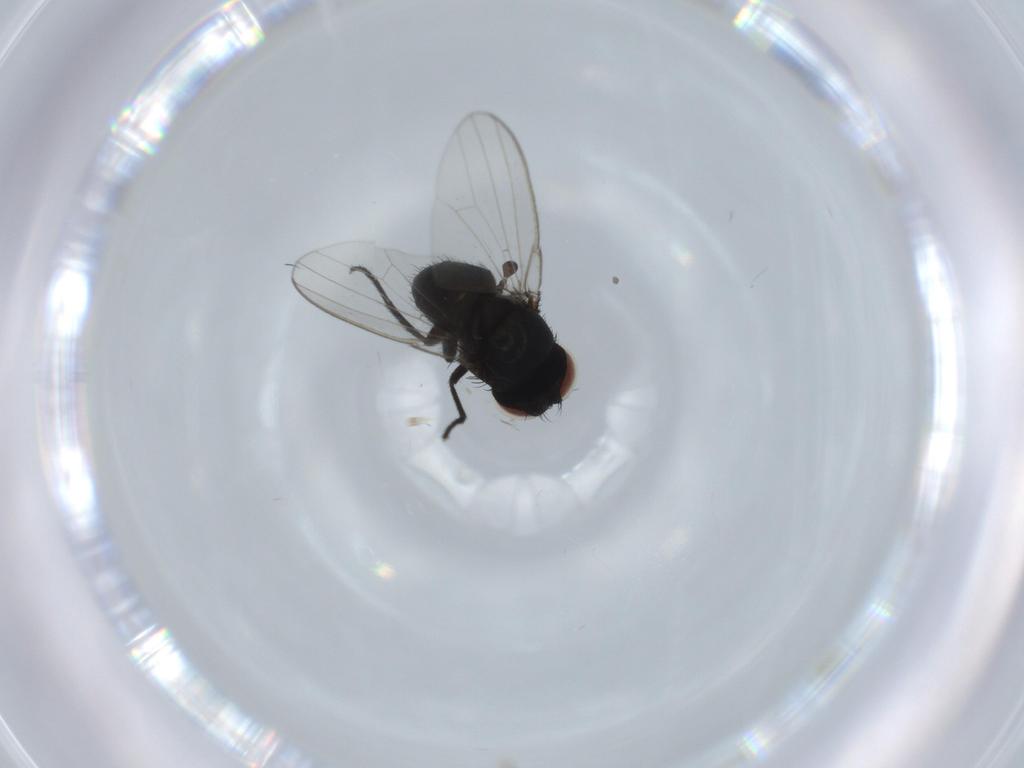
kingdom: Animalia
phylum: Arthropoda
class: Insecta
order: Diptera
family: Milichiidae
